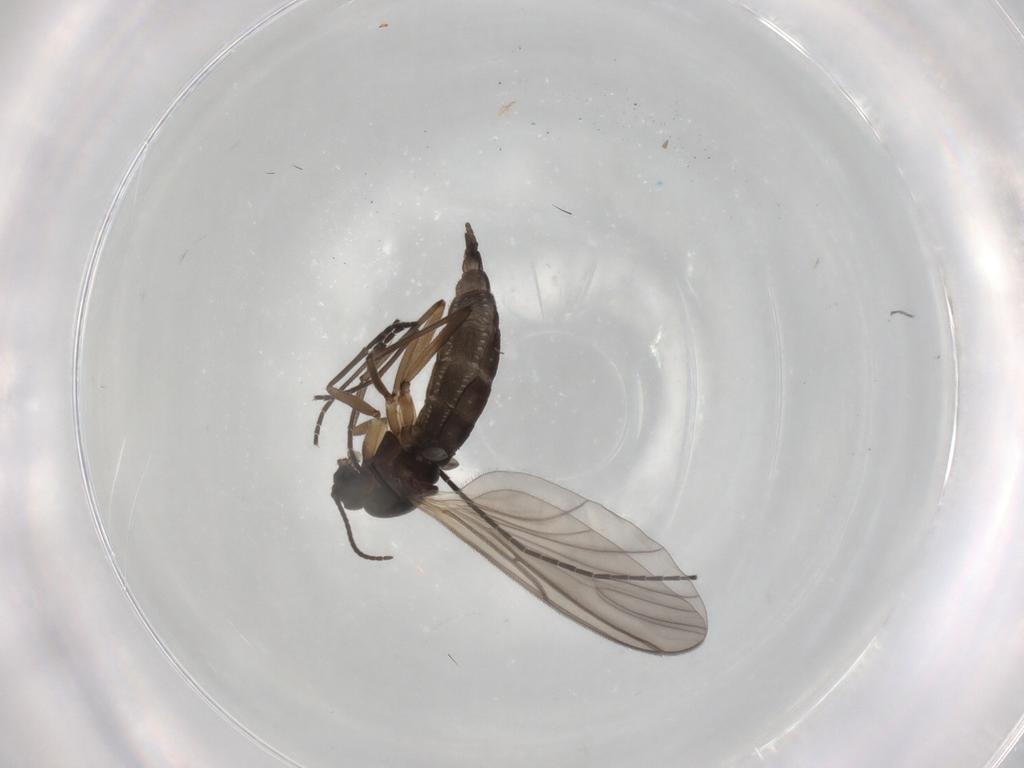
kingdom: Animalia
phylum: Arthropoda
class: Insecta
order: Diptera
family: Sciaridae
